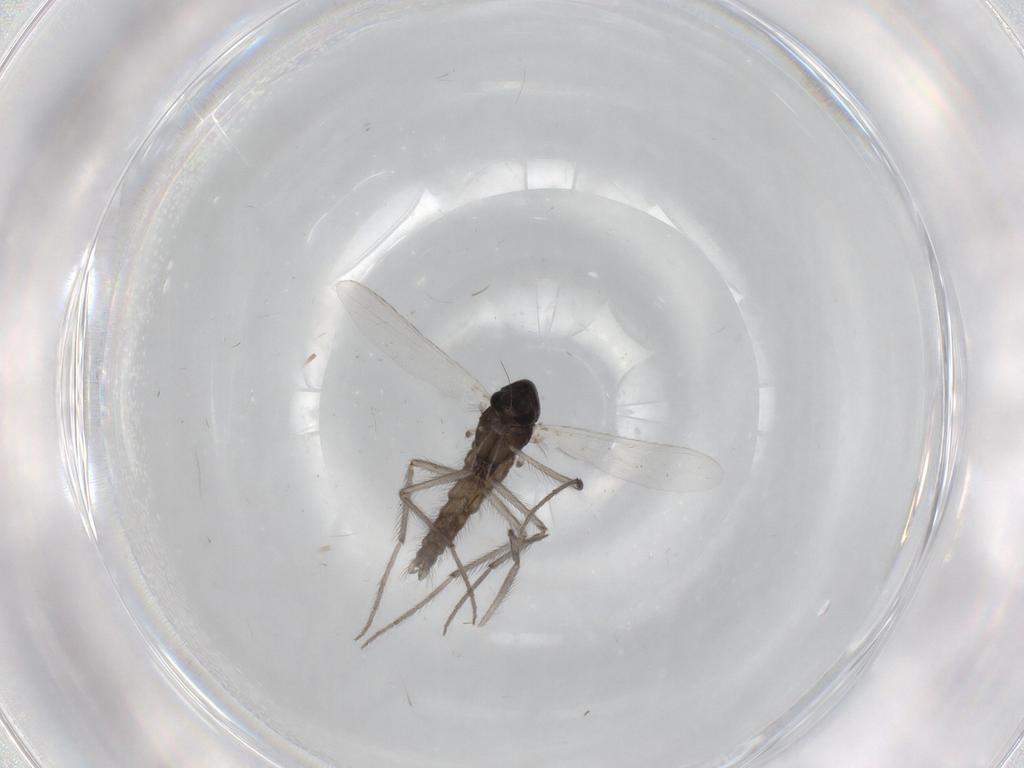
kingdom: Animalia
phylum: Arthropoda
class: Insecta
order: Diptera
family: Chironomidae
